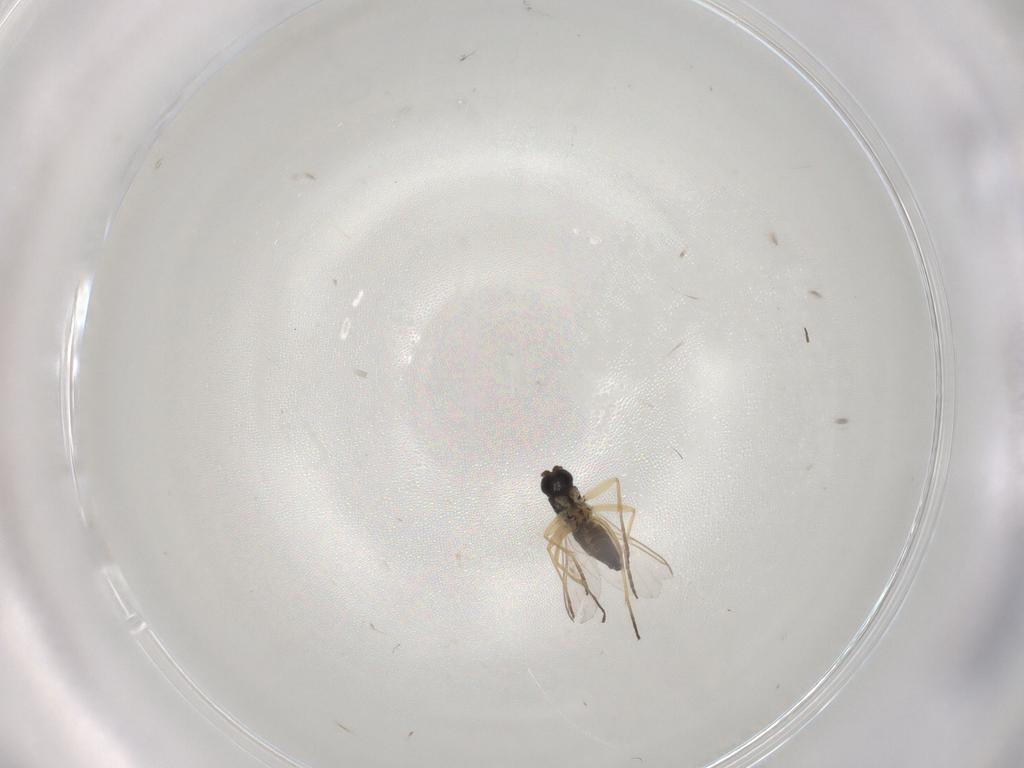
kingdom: Animalia
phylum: Arthropoda
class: Insecta
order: Diptera
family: Sciaridae
